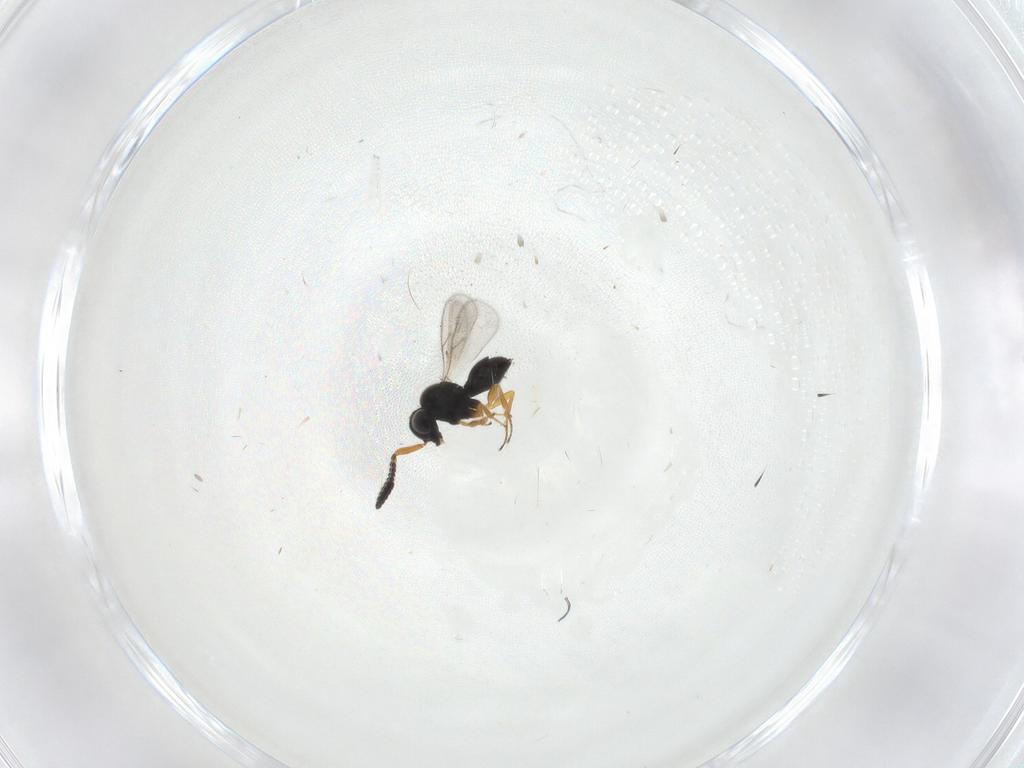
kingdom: Animalia
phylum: Arthropoda
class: Insecta
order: Hymenoptera
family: Scelionidae
